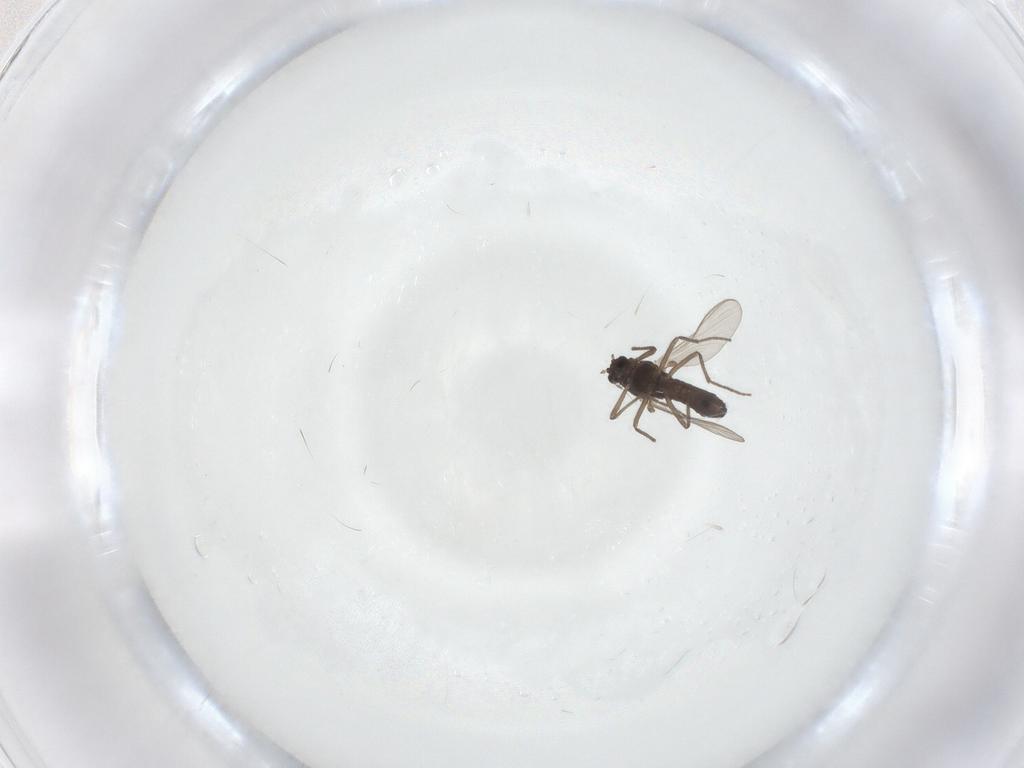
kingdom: Animalia
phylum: Arthropoda
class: Insecta
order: Diptera
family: Chironomidae
